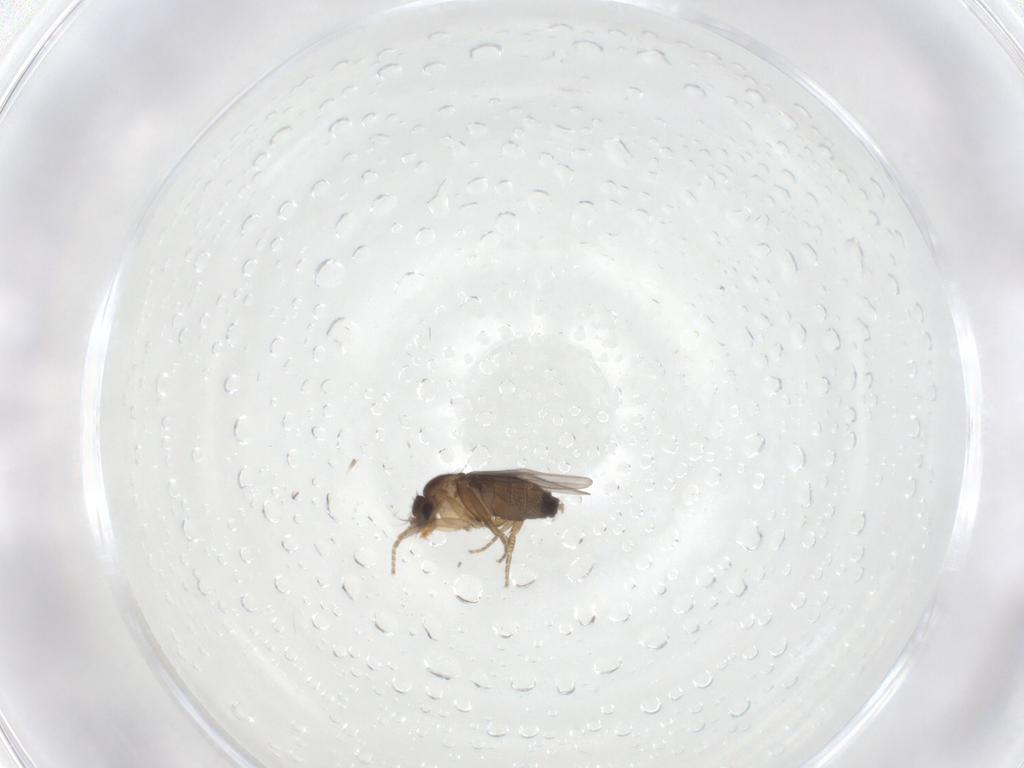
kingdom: Animalia
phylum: Arthropoda
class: Insecta
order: Diptera
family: Phoridae
